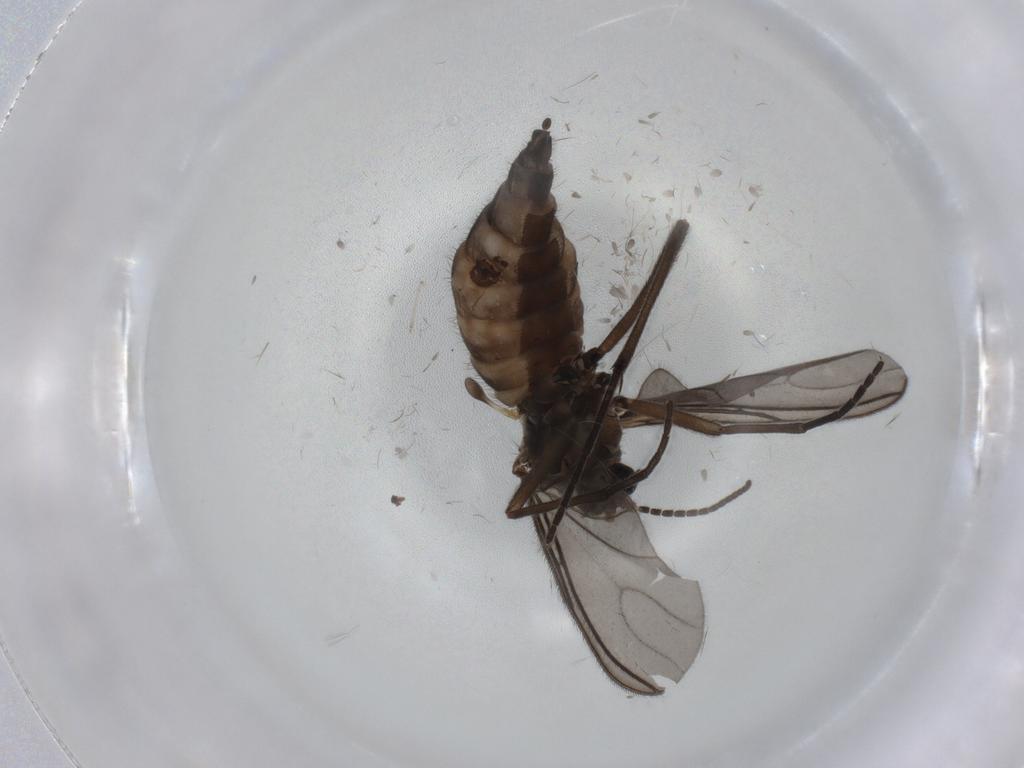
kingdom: Animalia
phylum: Arthropoda
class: Insecta
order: Diptera
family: Sciaridae
